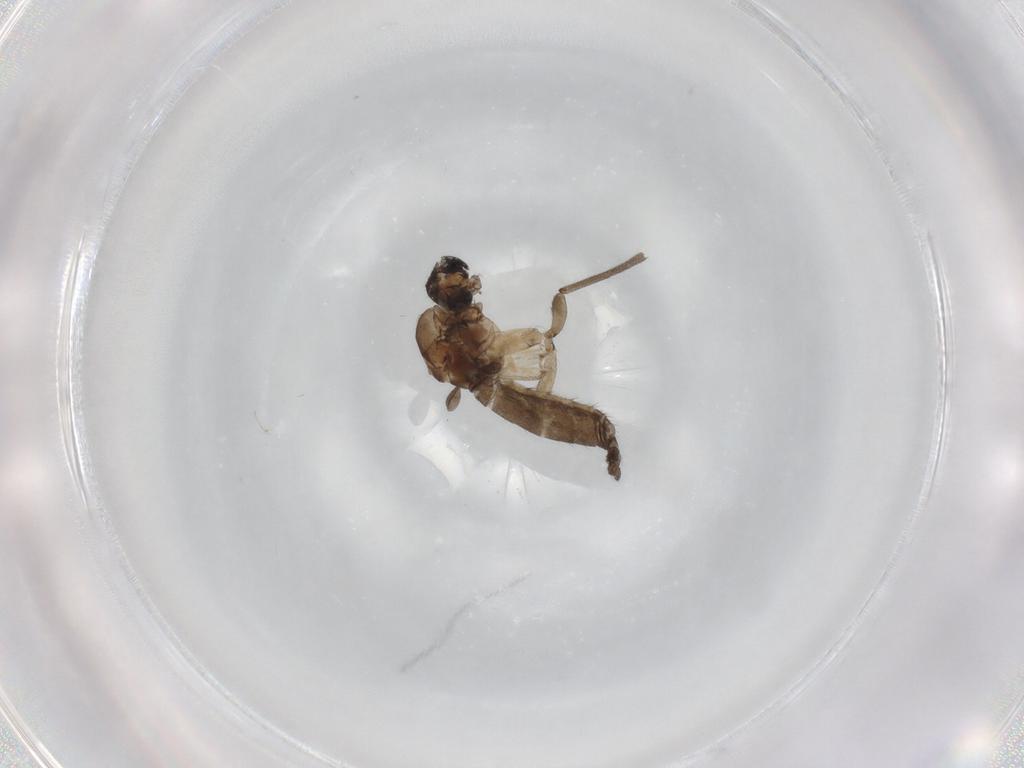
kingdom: Animalia
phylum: Arthropoda
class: Insecta
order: Diptera
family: Cecidomyiidae
